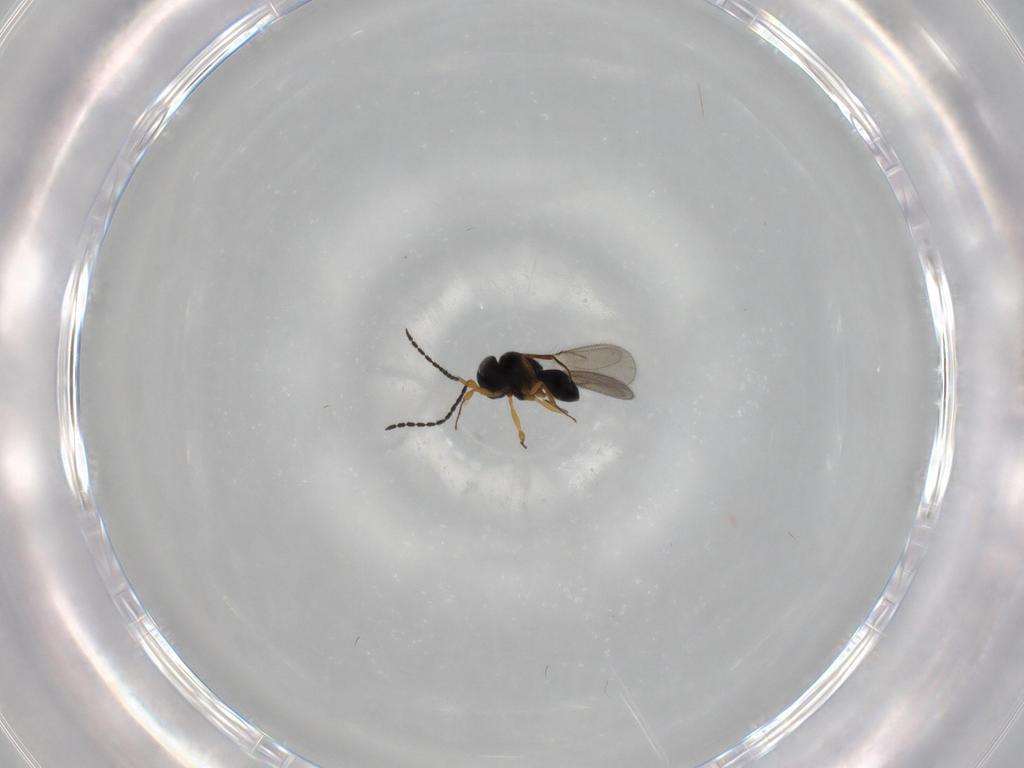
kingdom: Animalia
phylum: Arthropoda
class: Insecta
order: Hymenoptera
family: Scelionidae
